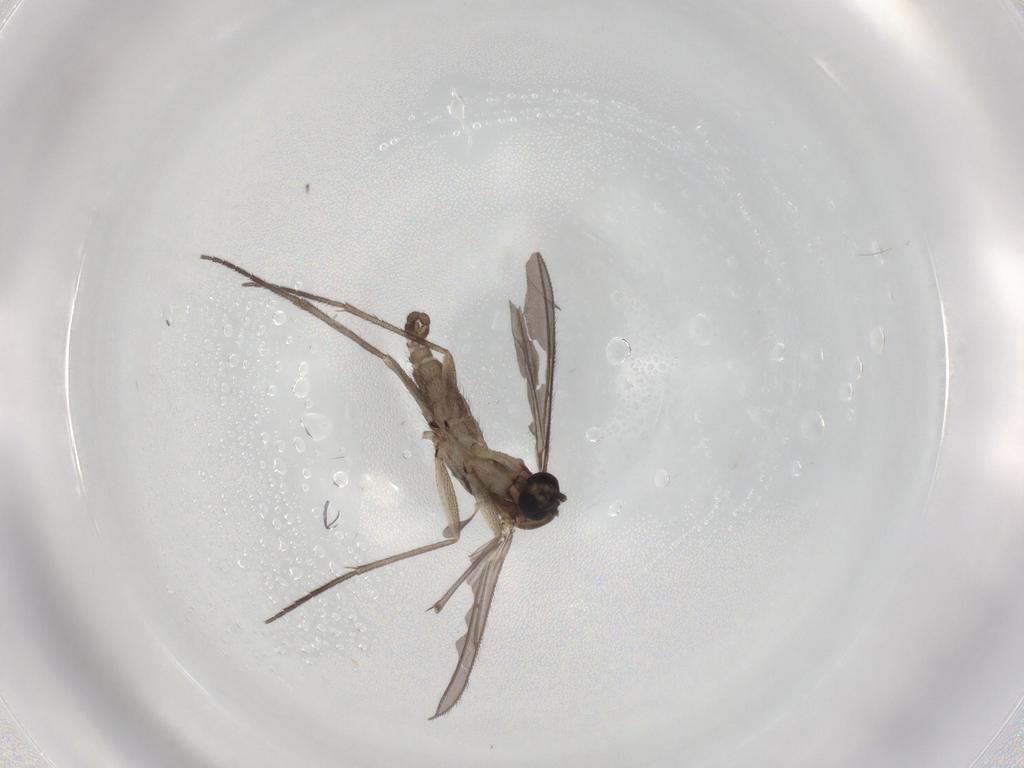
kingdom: Animalia
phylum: Arthropoda
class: Insecta
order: Diptera
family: Sciaridae
